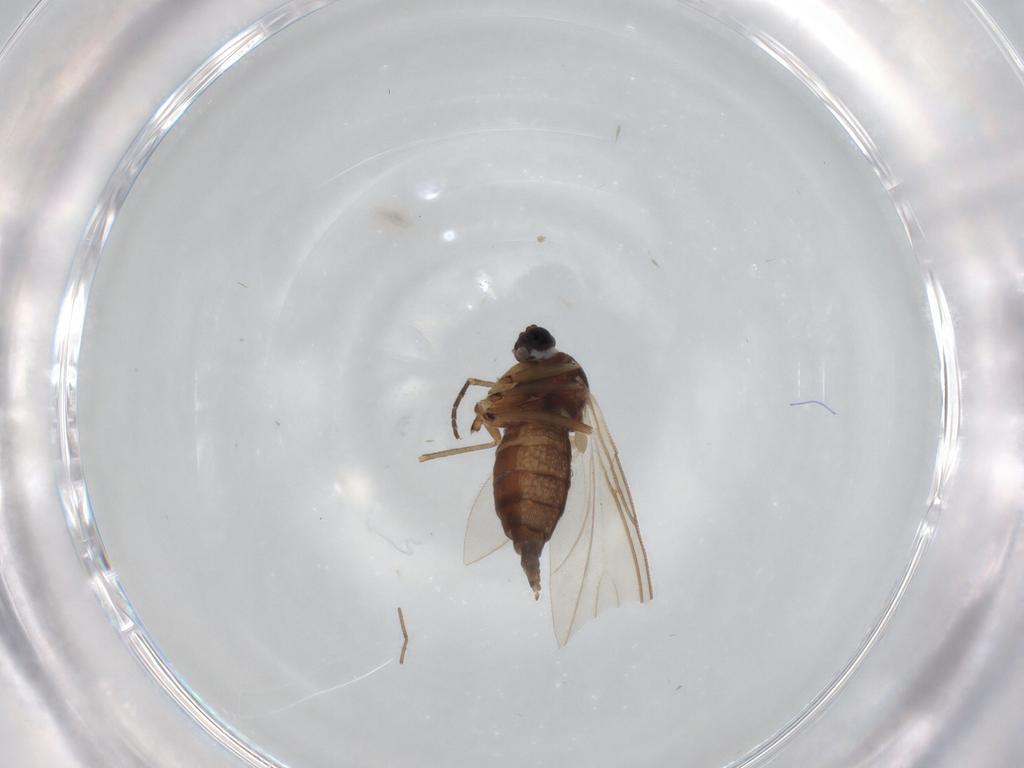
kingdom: Animalia
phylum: Arthropoda
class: Insecta
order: Diptera
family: Sciaridae
